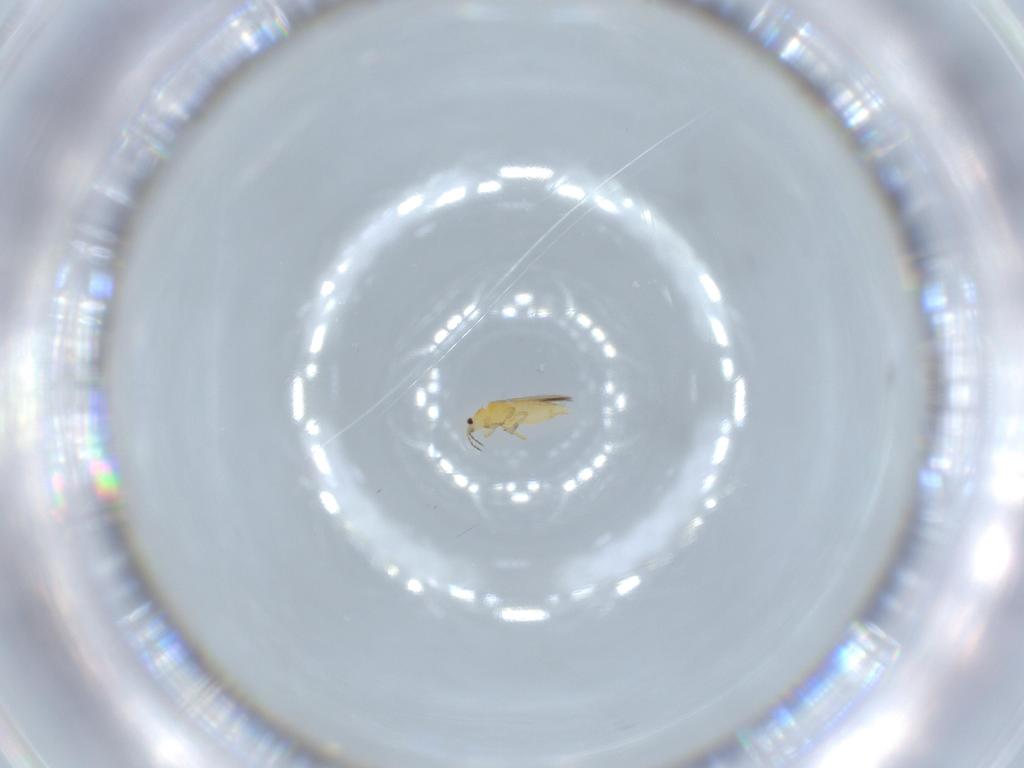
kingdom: Animalia
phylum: Arthropoda
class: Insecta
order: Thysanoptera
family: Thripidae
